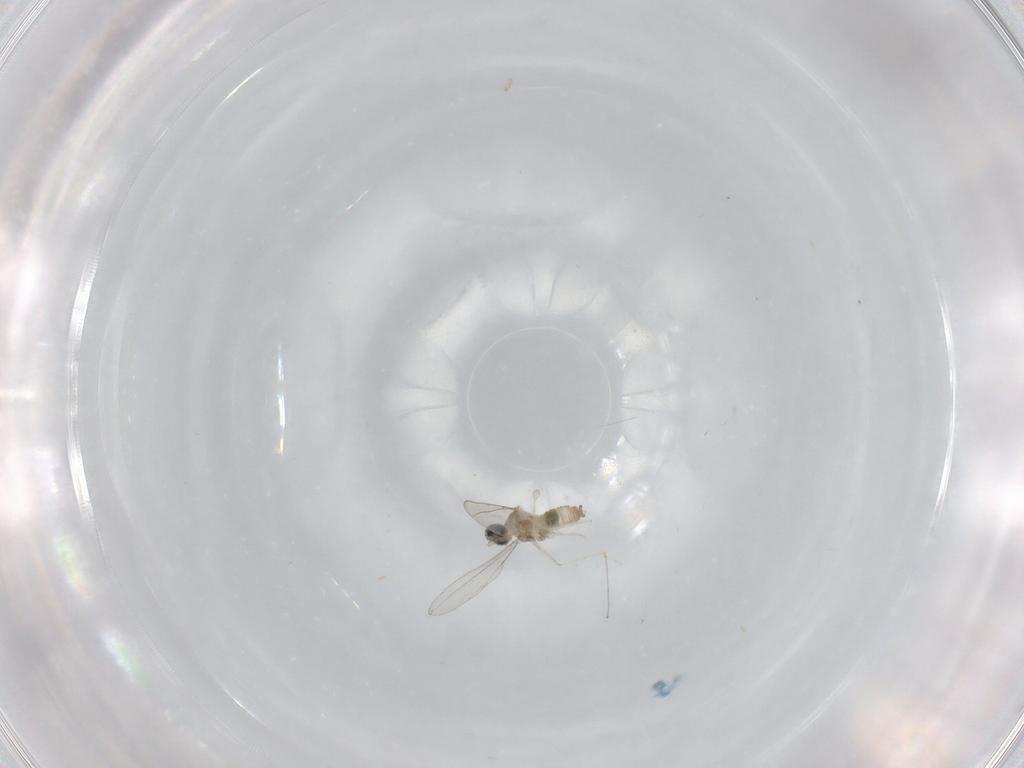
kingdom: Animalia
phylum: Arthropoda
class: Insecta
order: Diptera
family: Cecidomyiidae
